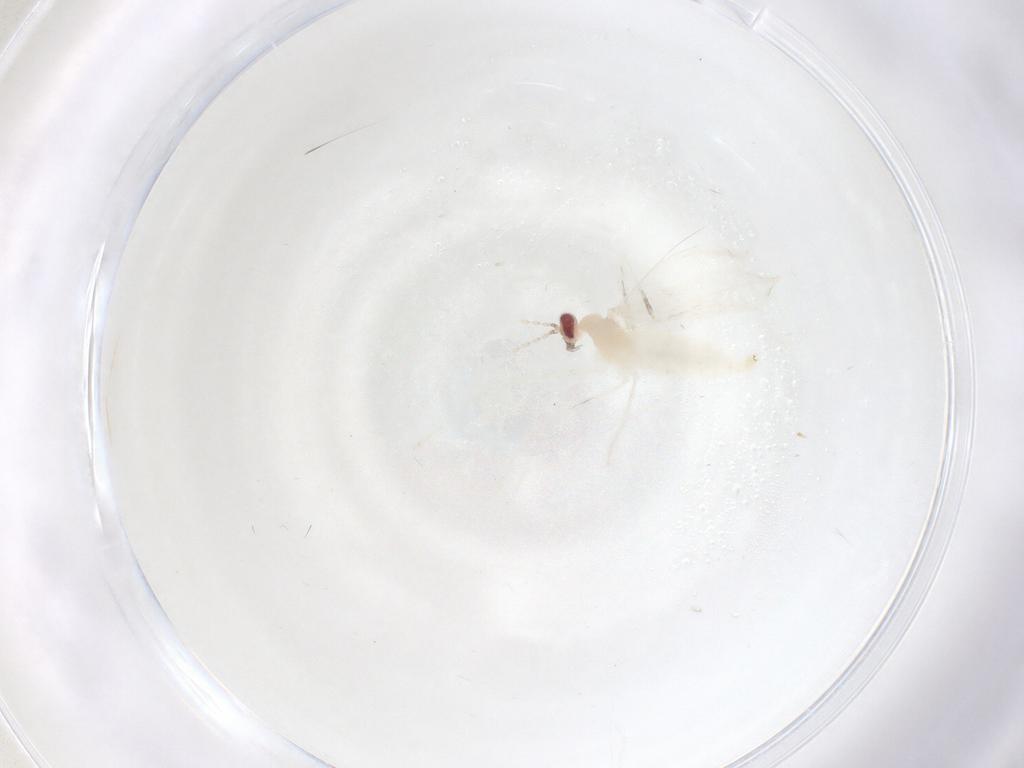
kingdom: Animalia
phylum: Arthropoda
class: Insecta
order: Diptera
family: Cecidomyiidae
